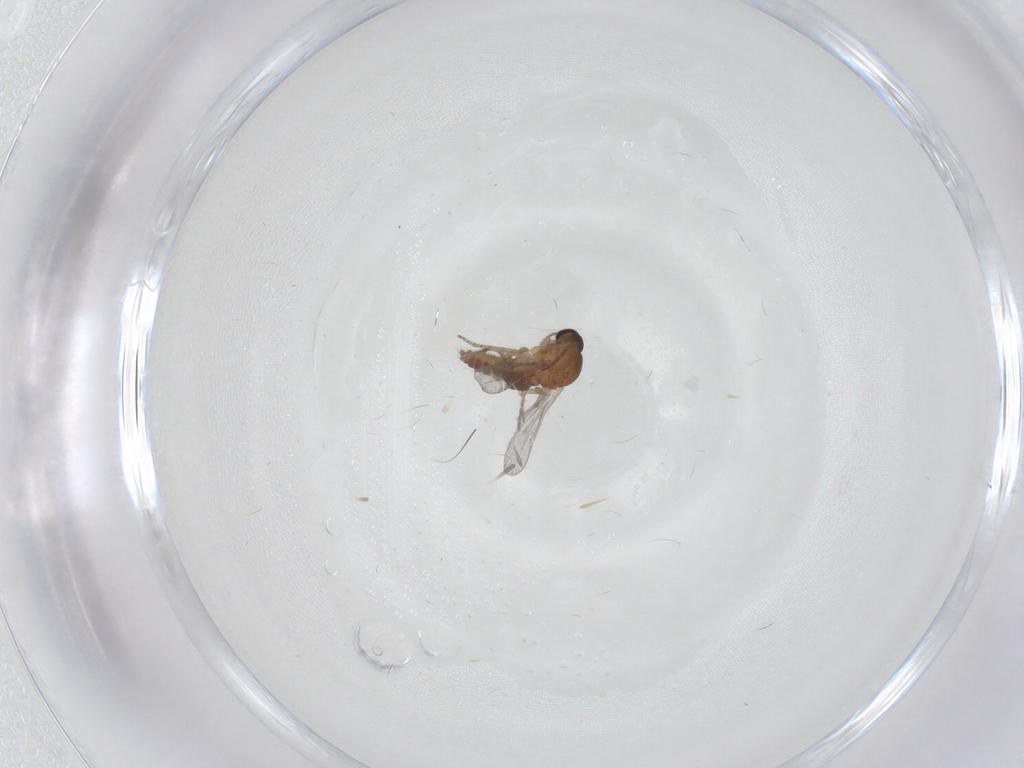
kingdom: Animalia
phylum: Arthropoda
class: Insecta
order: Diptera
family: Ceratopogonidae
